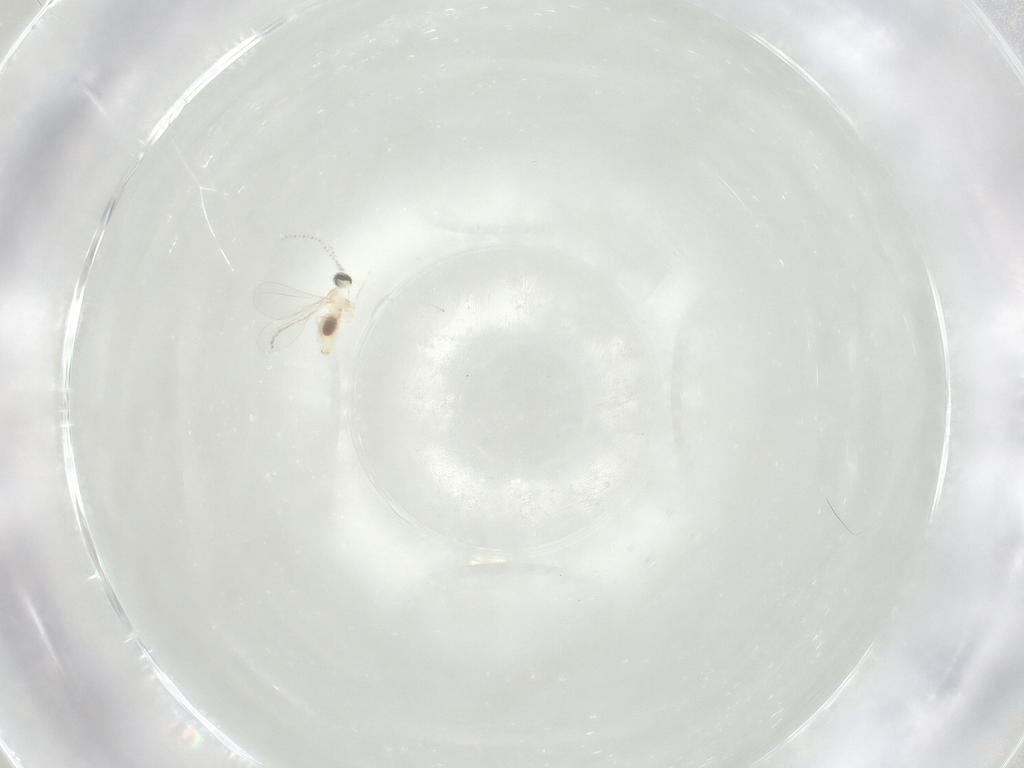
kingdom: Animalia
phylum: Arthropoda
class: Insecta
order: Diptera
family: Cecidomyiidae
